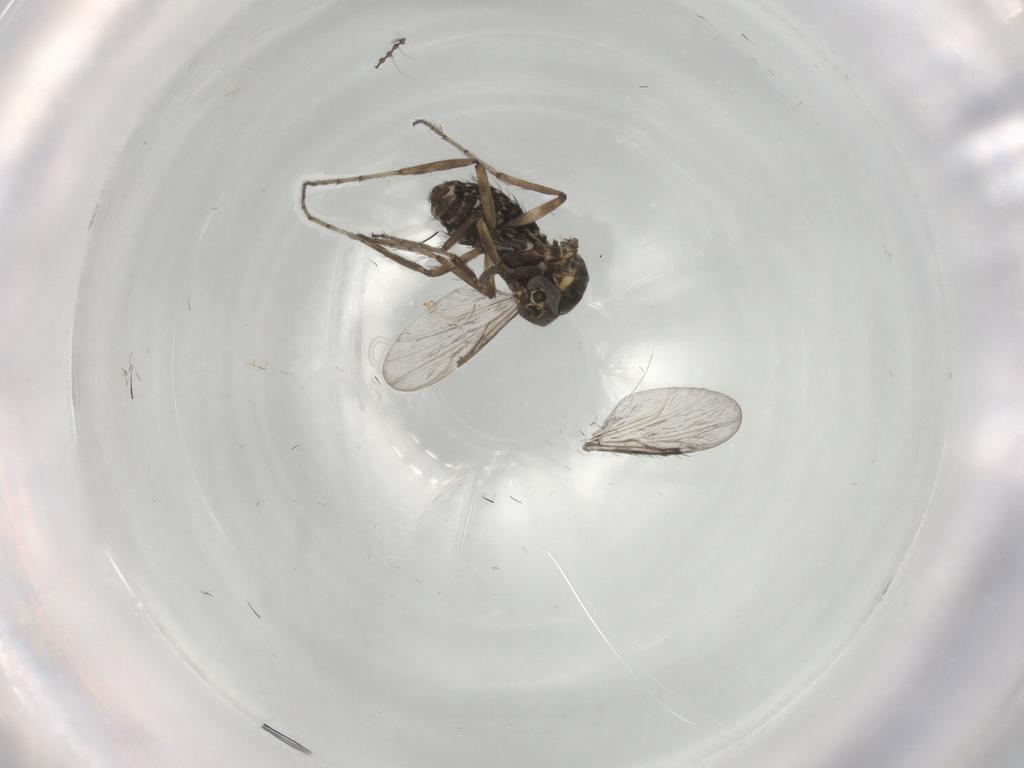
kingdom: Animalia
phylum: Arthropoda
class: Insecta
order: Diptera
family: Ceratopogonidae
